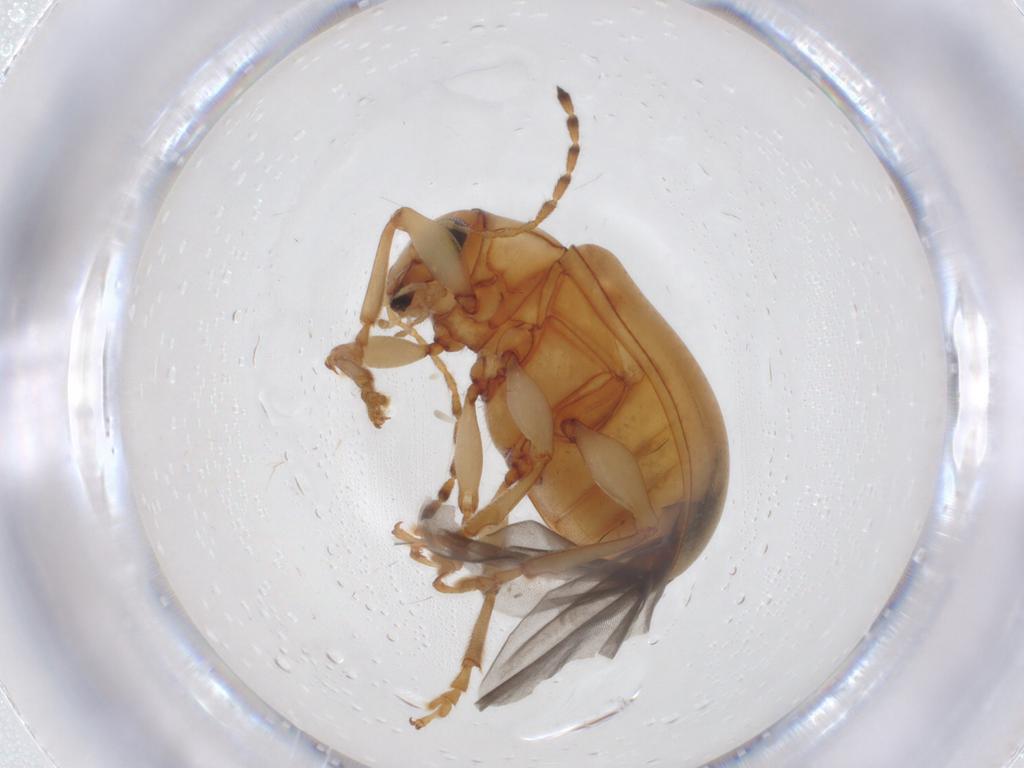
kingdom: Animalia
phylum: Arthropoda
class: Insecta
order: Coleoptera
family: Chrysomelidae
